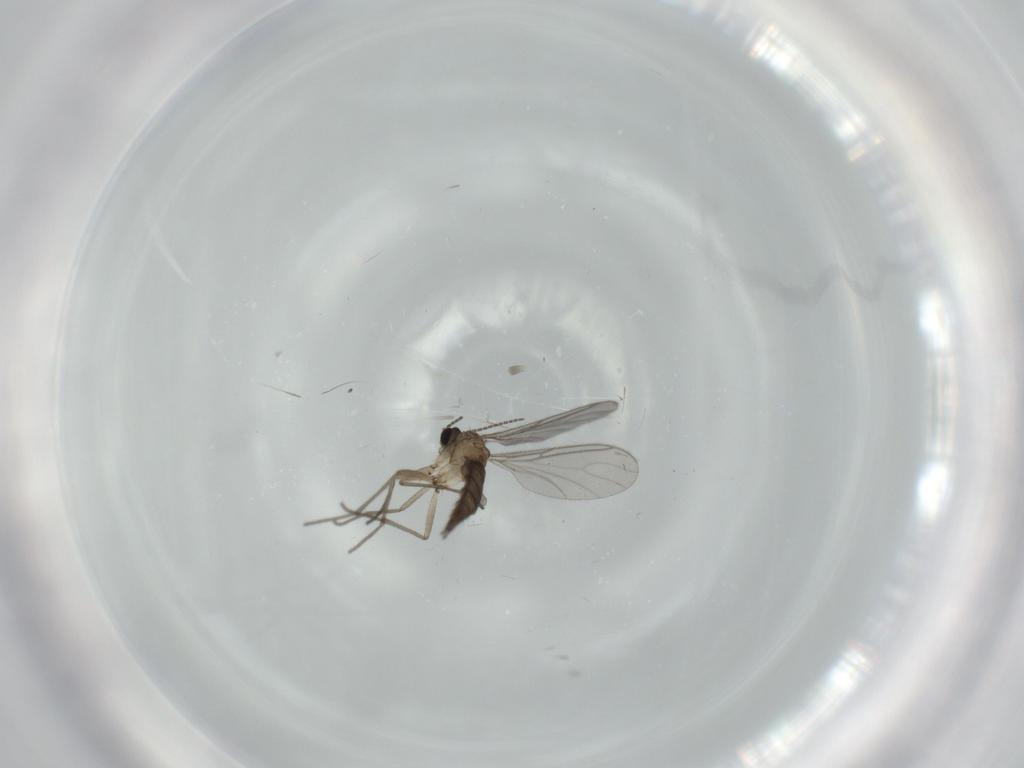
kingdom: Animalia
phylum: Arthropoda
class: Insecta
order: Diptera
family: Sciaridae
